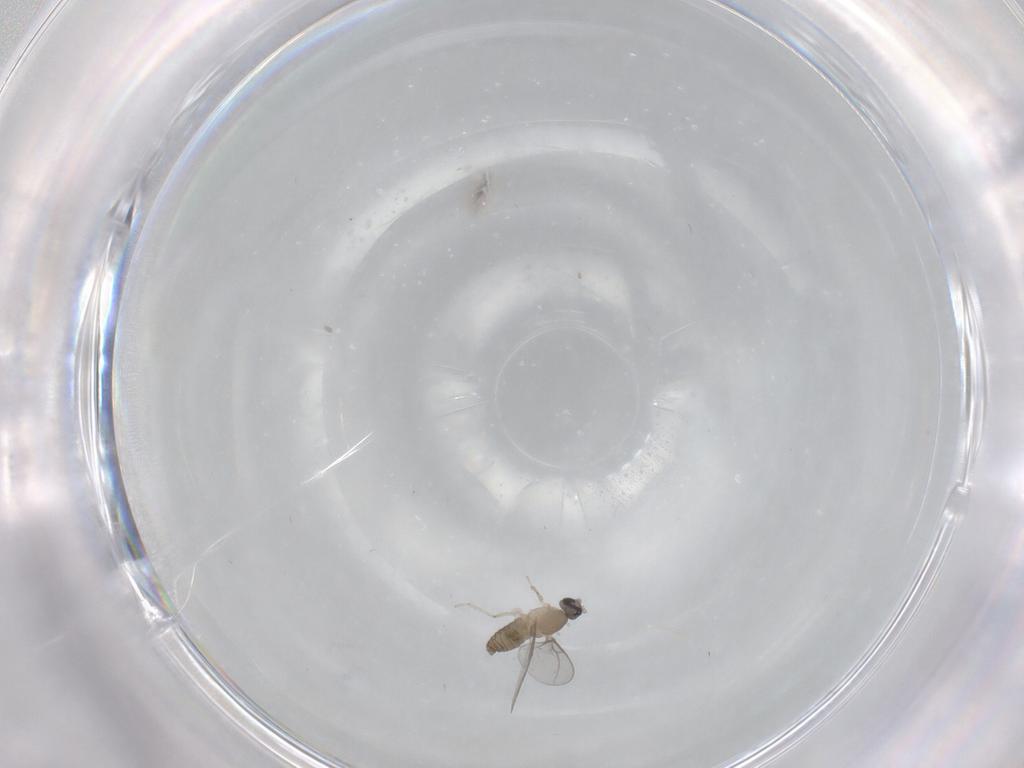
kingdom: Animalia
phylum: Arthropoda
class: Insecta
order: Diptera
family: Cecidomyiidae
